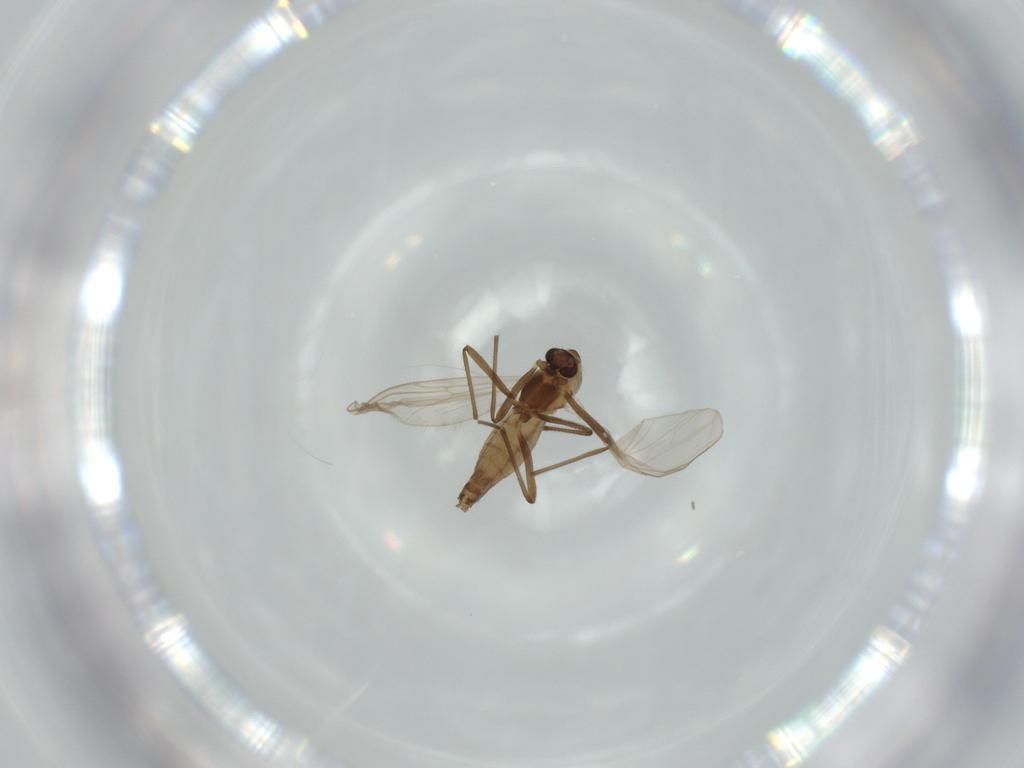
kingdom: Animalia
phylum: Arthropoda
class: Insecta
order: Diptera
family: Chironomidae
